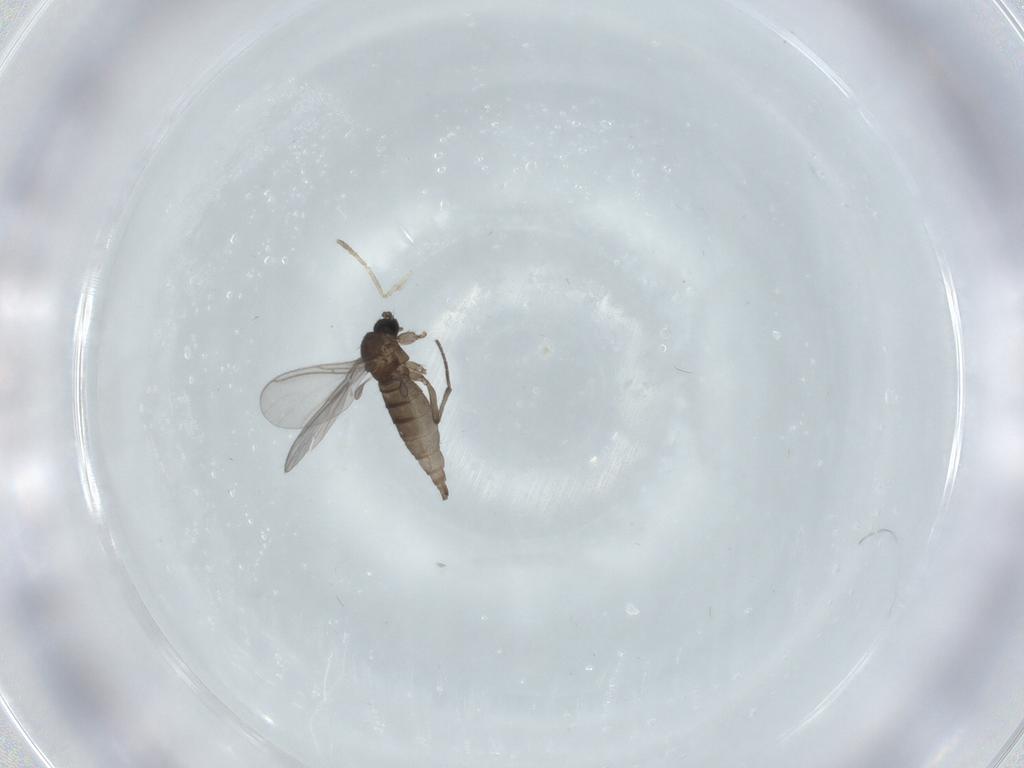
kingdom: Animalia
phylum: Arthropoda
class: Insecta
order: Diptera
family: Sciaridae
